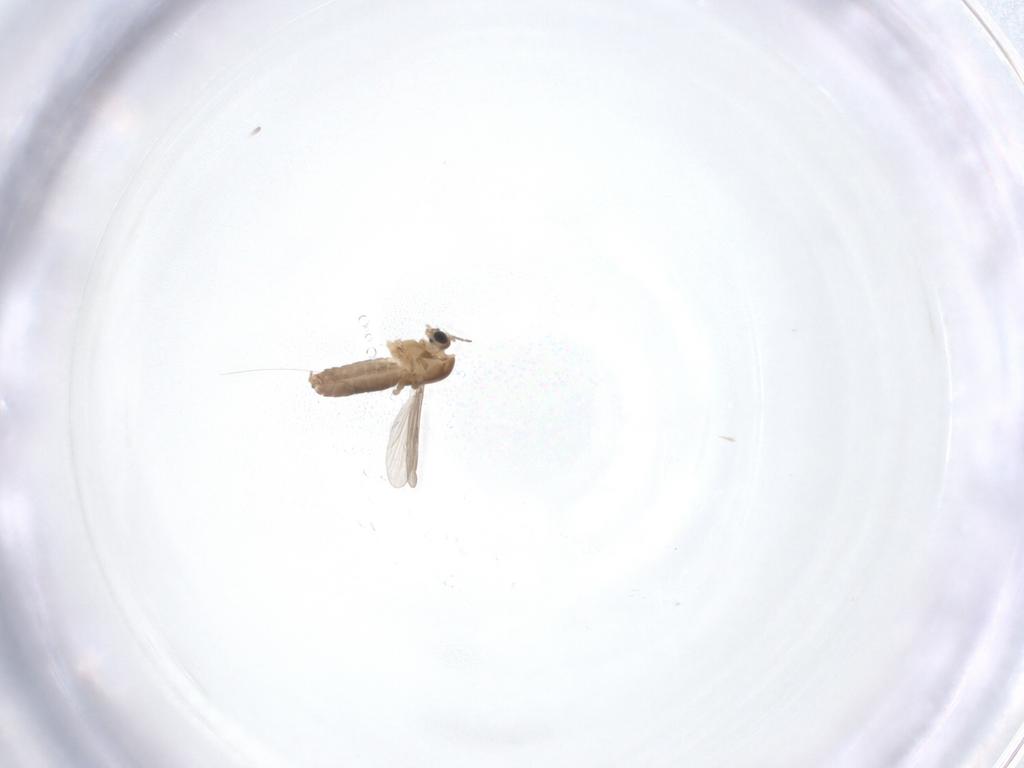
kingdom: Animalia
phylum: Arthropoda
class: Insecta
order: Diptera
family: Chironomidae
